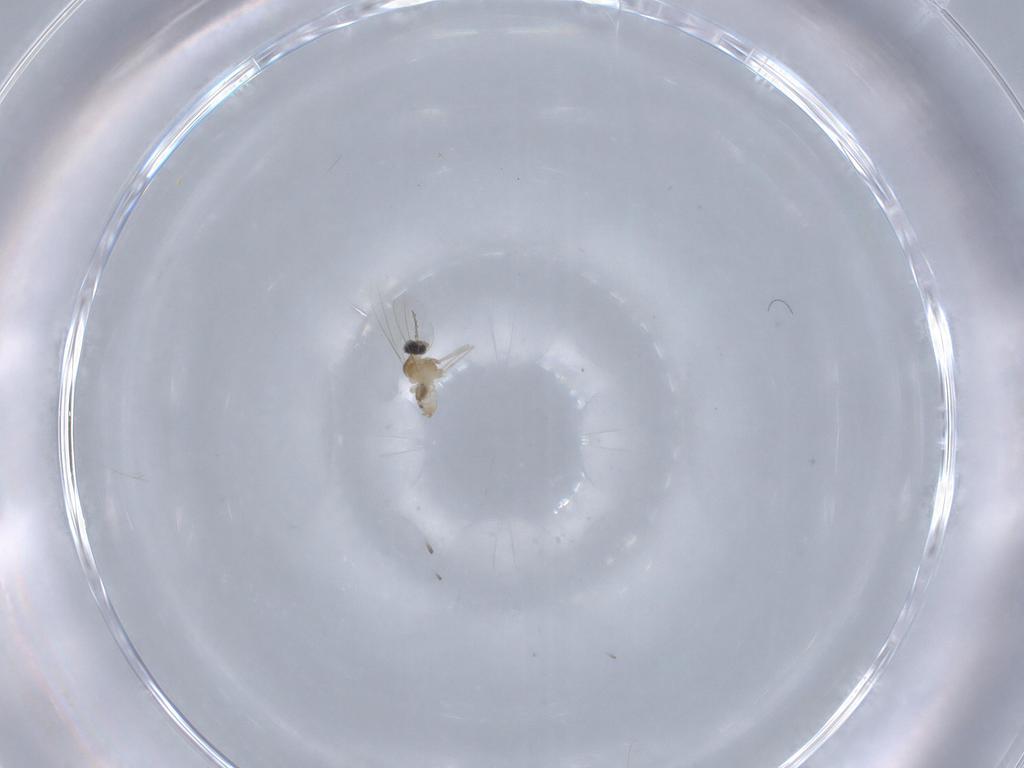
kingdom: Animalia
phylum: Arthropoda
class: Insecta
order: Diptera
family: Cecidomyiidae
